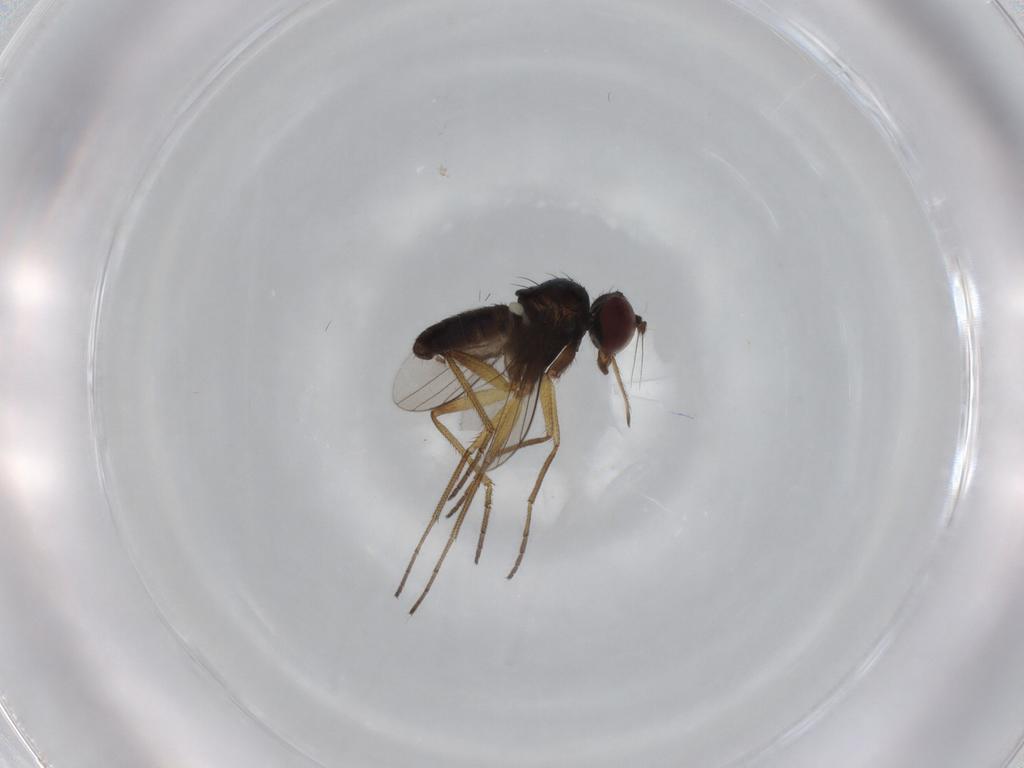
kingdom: Animalia
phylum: Arthropoda
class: Insecta
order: Diptera
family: Dolichopodidae
